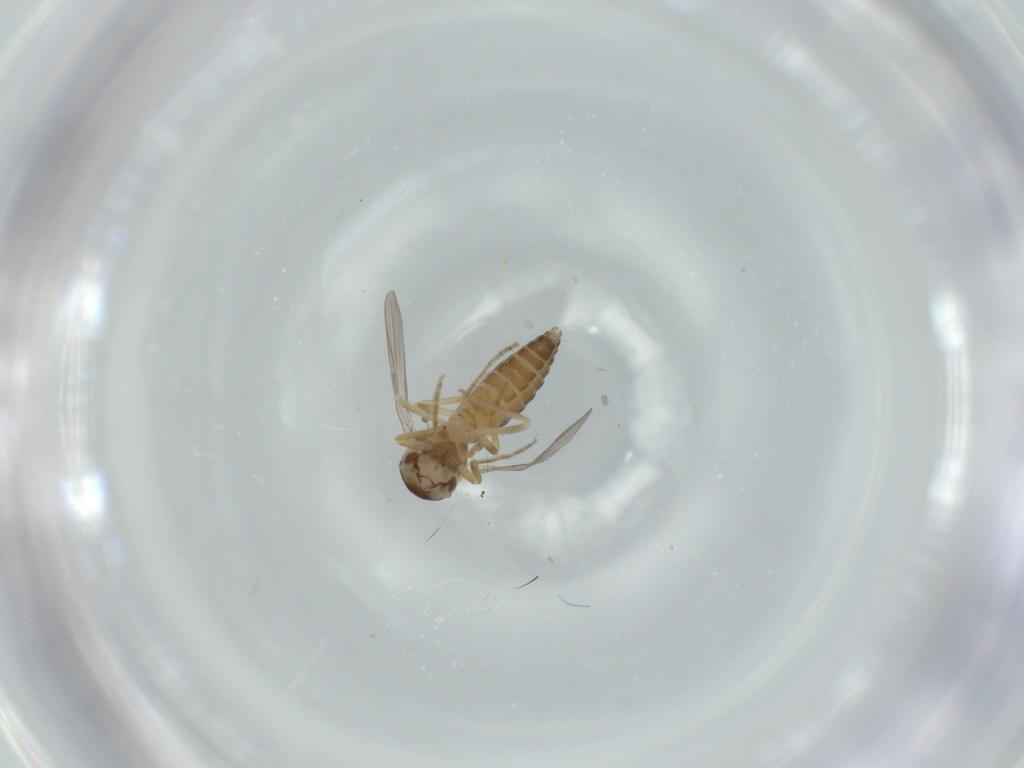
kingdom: Animalia
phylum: Arthropoda
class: Insecta
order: Diptera
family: Ceratopogonidae
